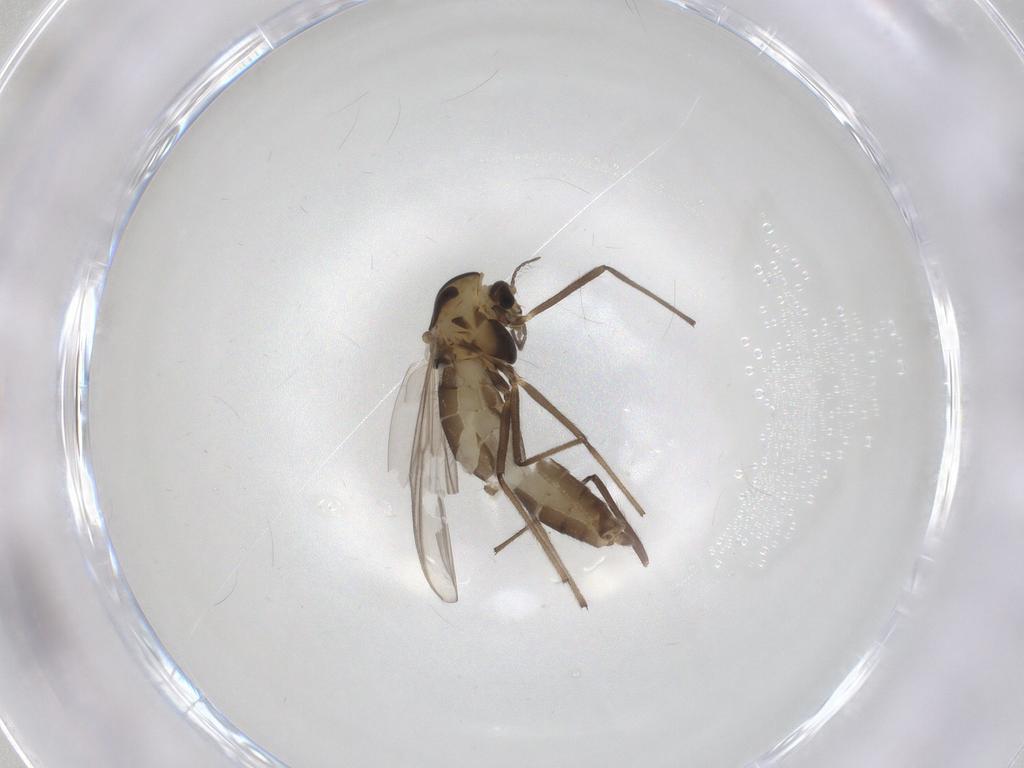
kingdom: Animalia
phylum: Arthropoda
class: Insecta
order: Diptera
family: Chironomidae
